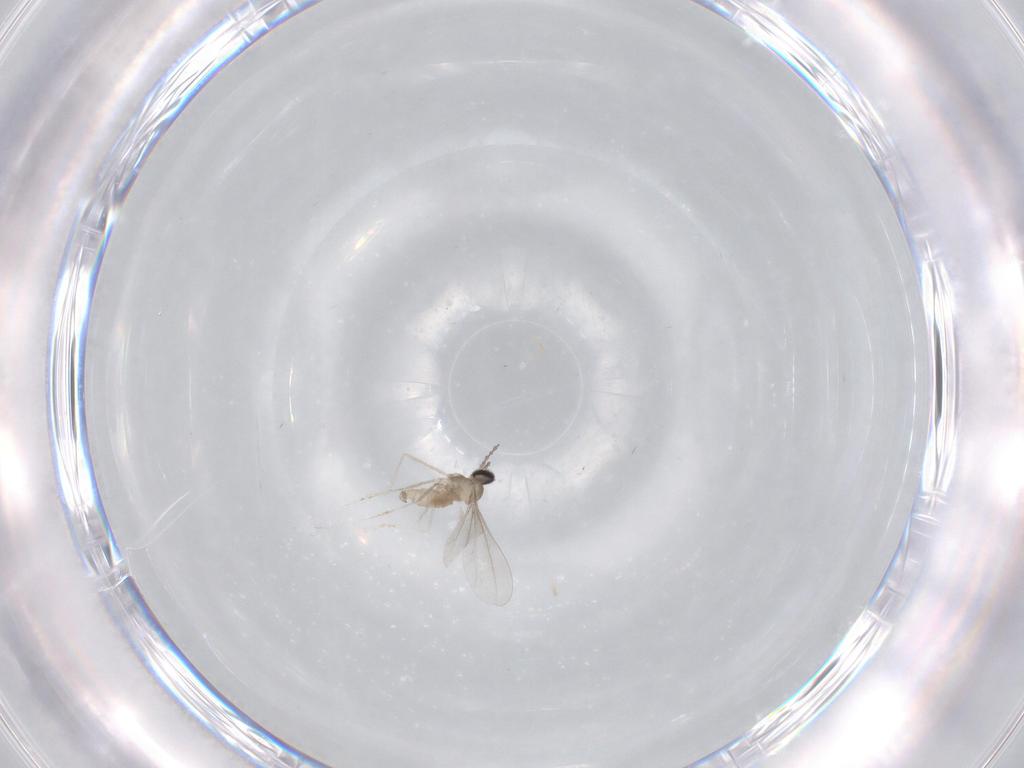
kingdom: Animalia
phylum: Arthropoda
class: Insecta
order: Diptera
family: Cecidomyiidae
